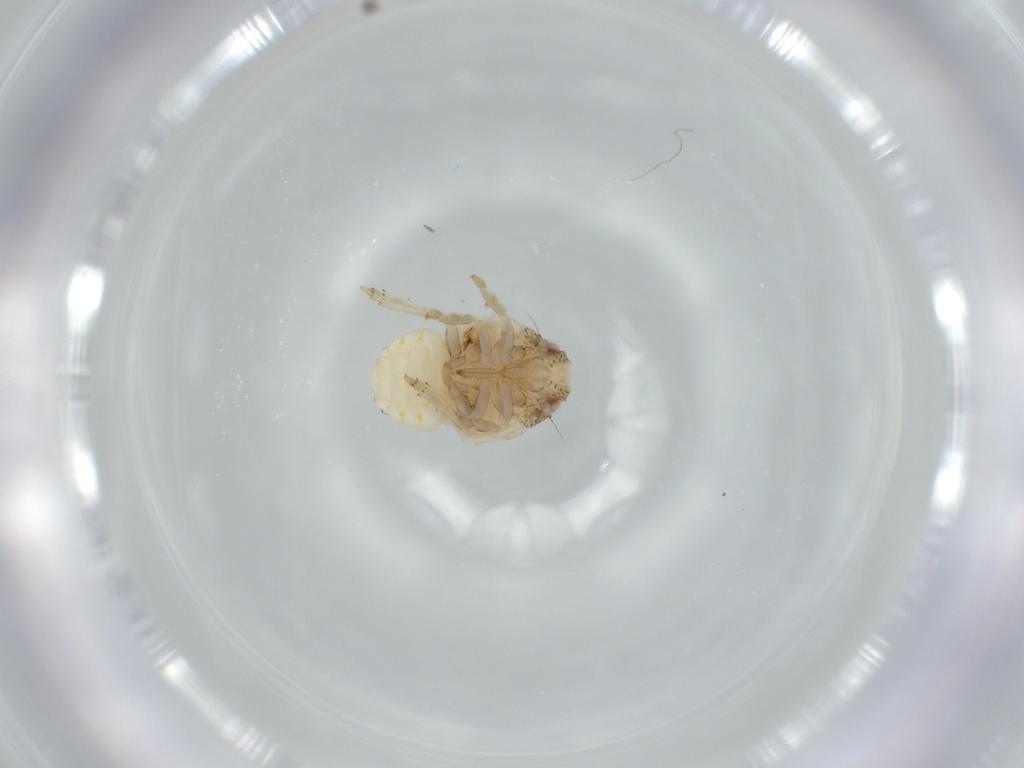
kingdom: Animalia
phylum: Arthropoda
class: Insecta
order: Hemiptera
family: Acanaloniidae
